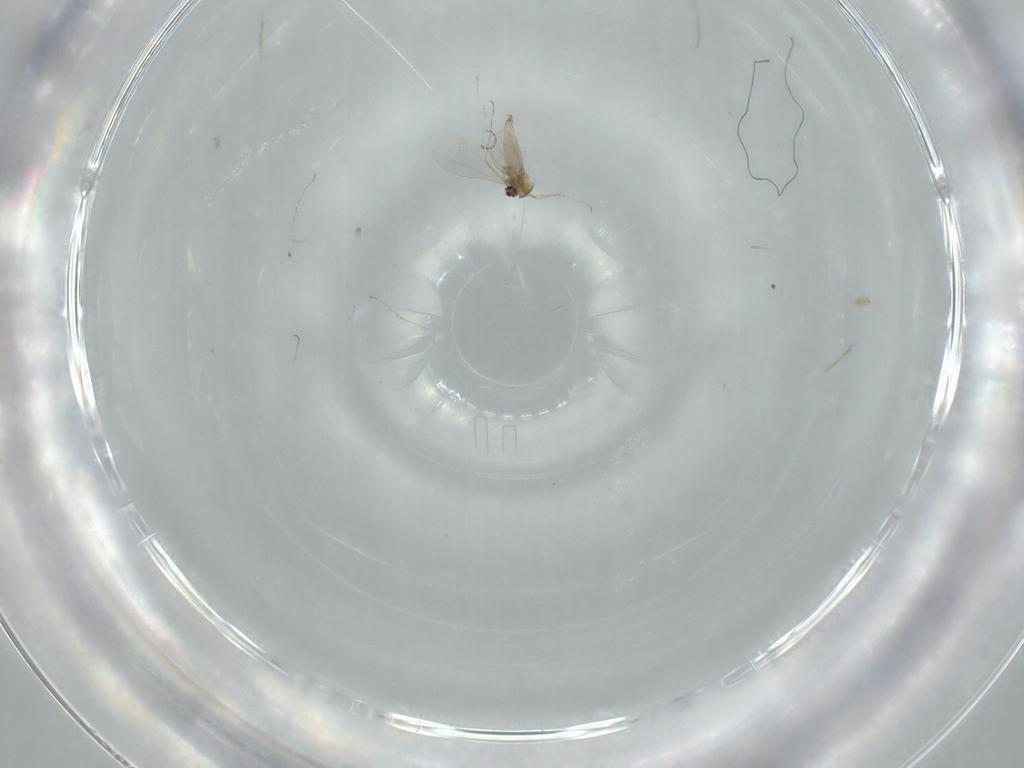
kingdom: Animalia
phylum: Arthropoda
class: Insecta
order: Diptera
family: Cecidomyiidae
